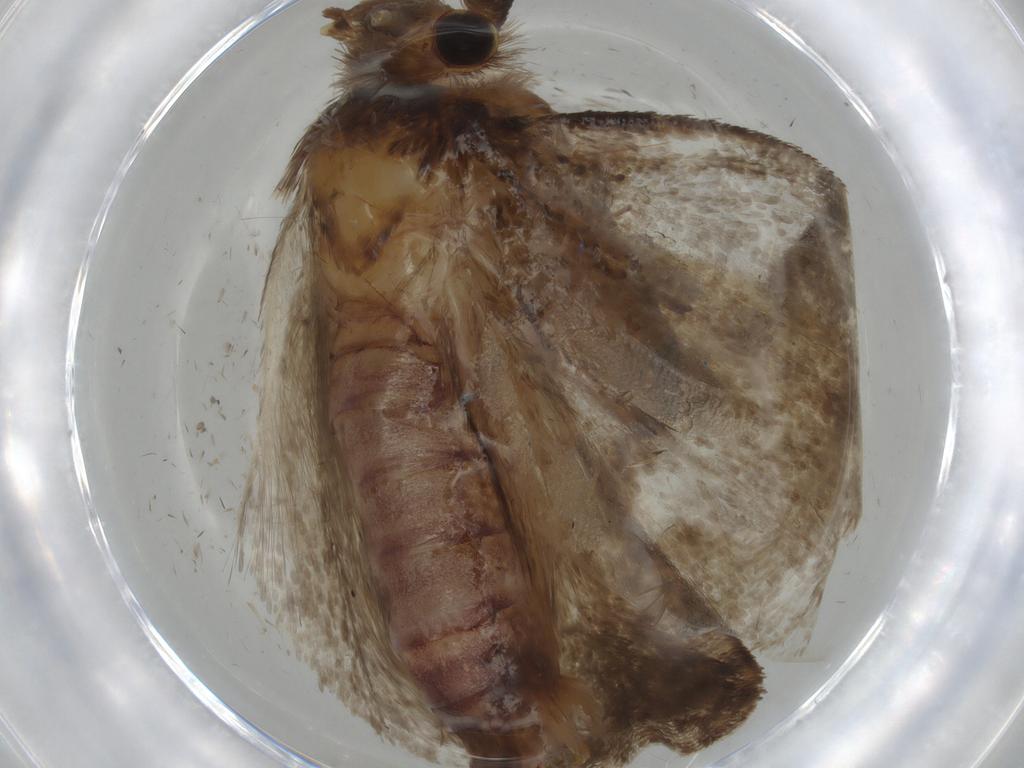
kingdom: Animalia
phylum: Arthropoda
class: Insecta
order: Lepidoptera
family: Tineidae
